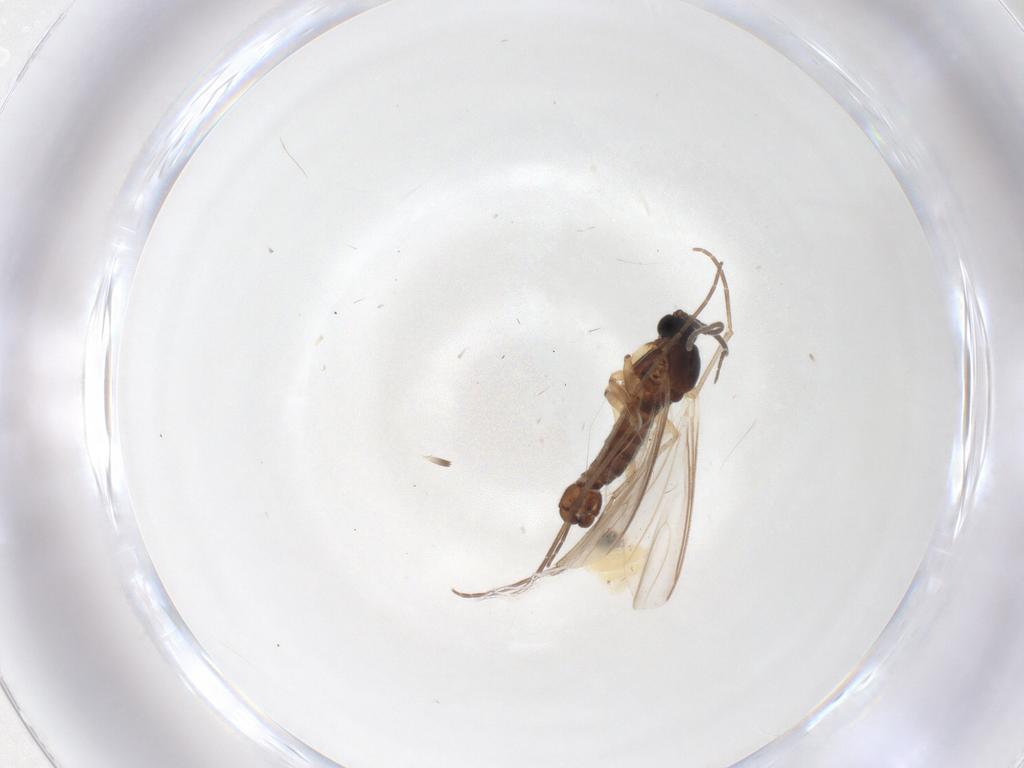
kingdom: Animalia
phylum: Arthropoda
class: Insecta
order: Diptera
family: Sciaridae
